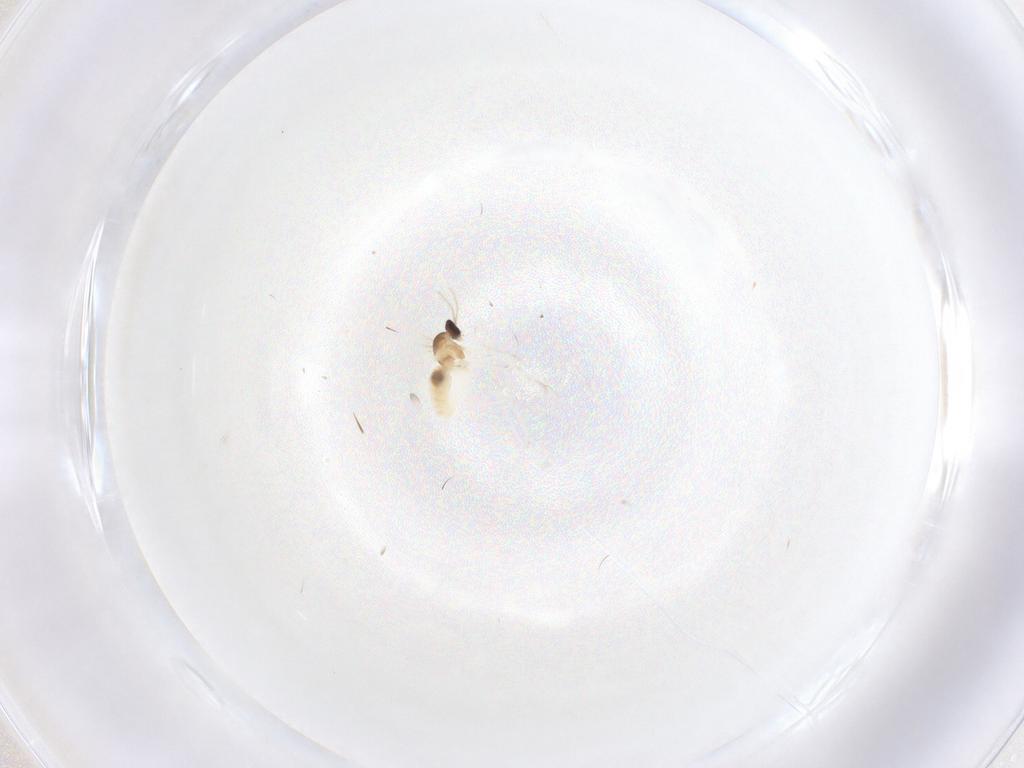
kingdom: Animalia
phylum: Arthropoda
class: Insecta
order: Diptera
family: Cecidomyiidae
